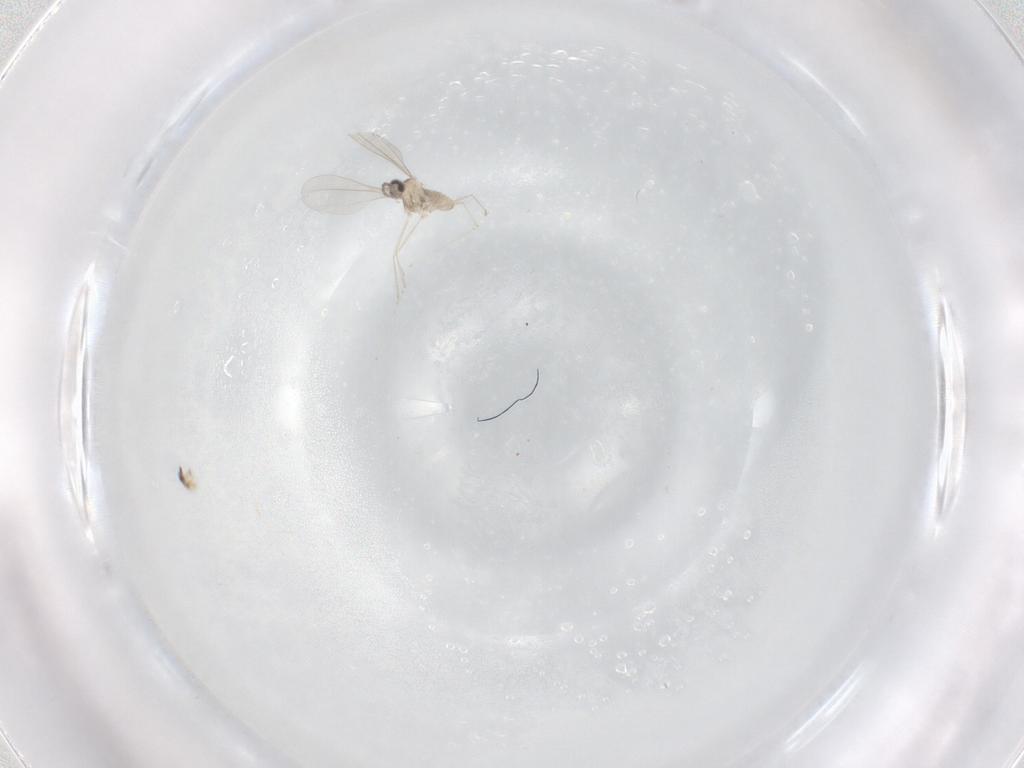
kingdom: Animalia
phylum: Arthropoda
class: Insecta
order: Diptera
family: Cecidomyiidae
